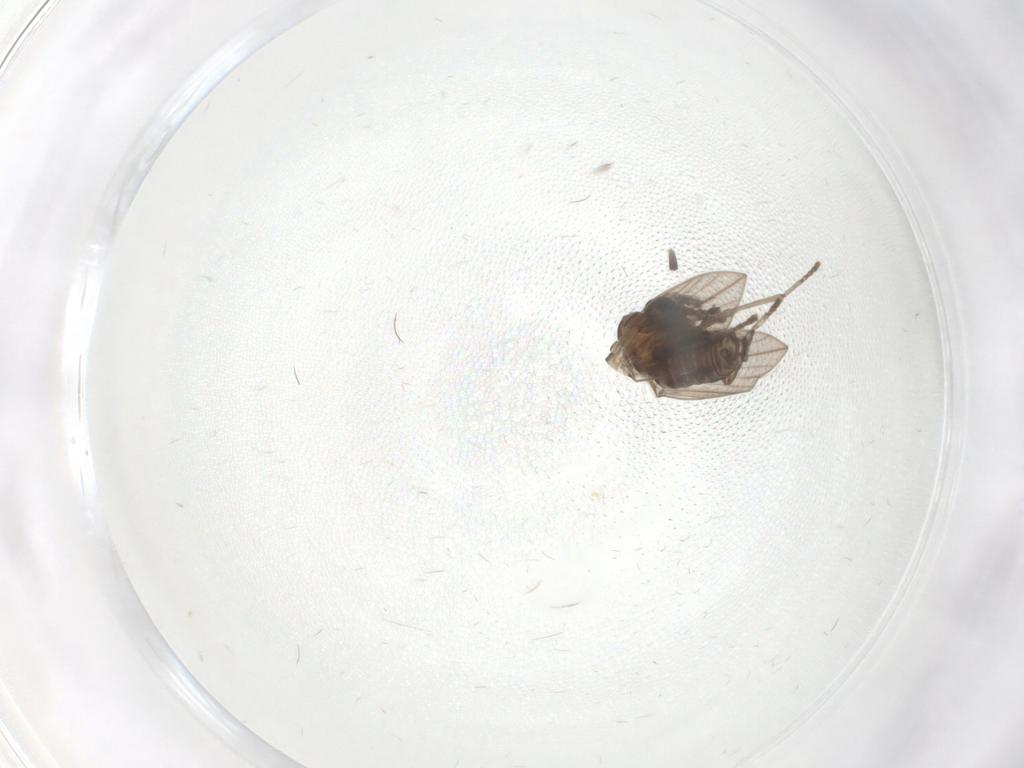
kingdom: Animalia
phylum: Arthropoda
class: Insecta
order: Diptera
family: Psychodidae
